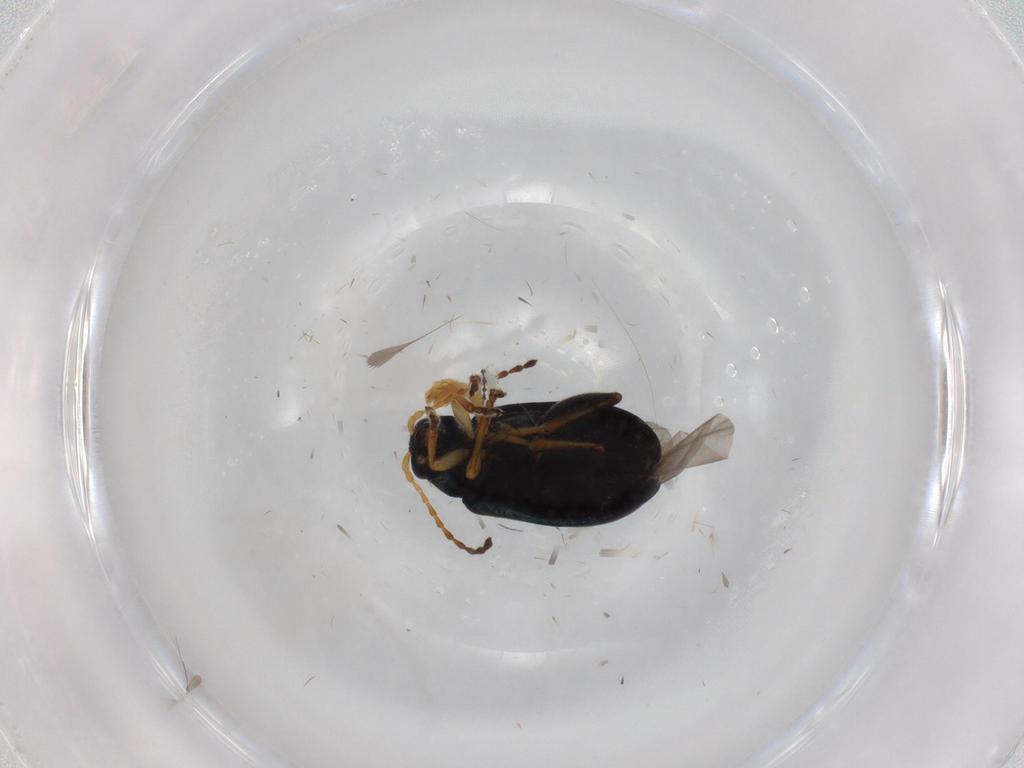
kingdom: Animalia
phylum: Arthropoda
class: Insecta
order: Coleoptera
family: Chrysomelidae
